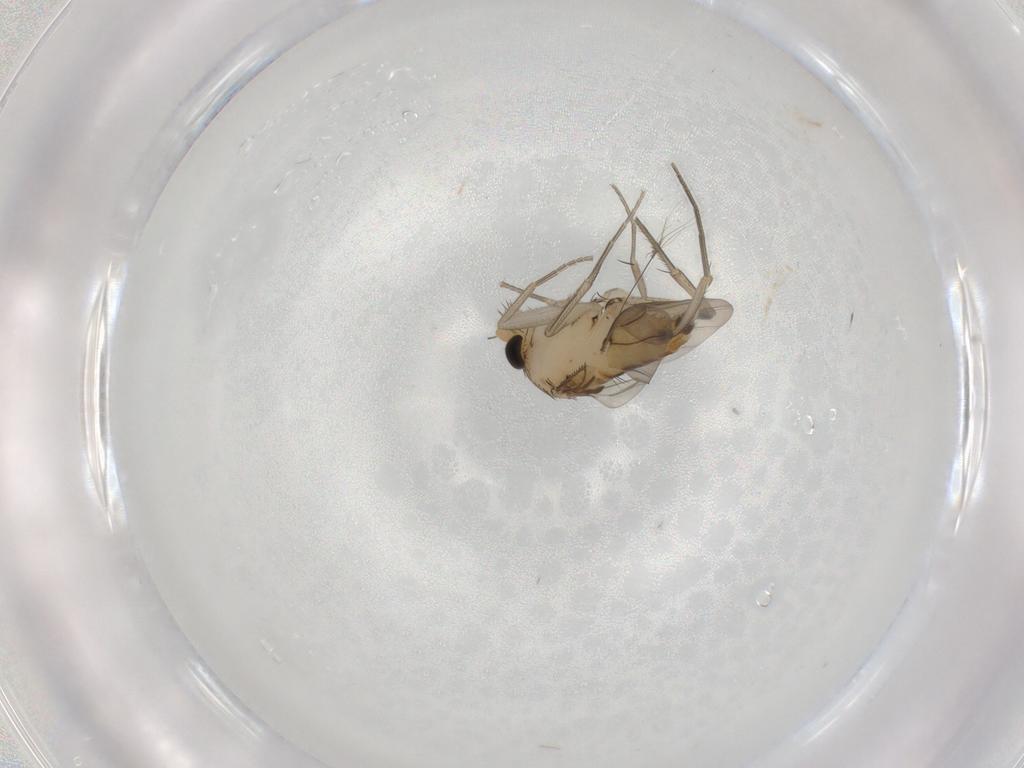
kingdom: Animalia
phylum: Arthropoda
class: Insecta
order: Diptera
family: Phoridae
